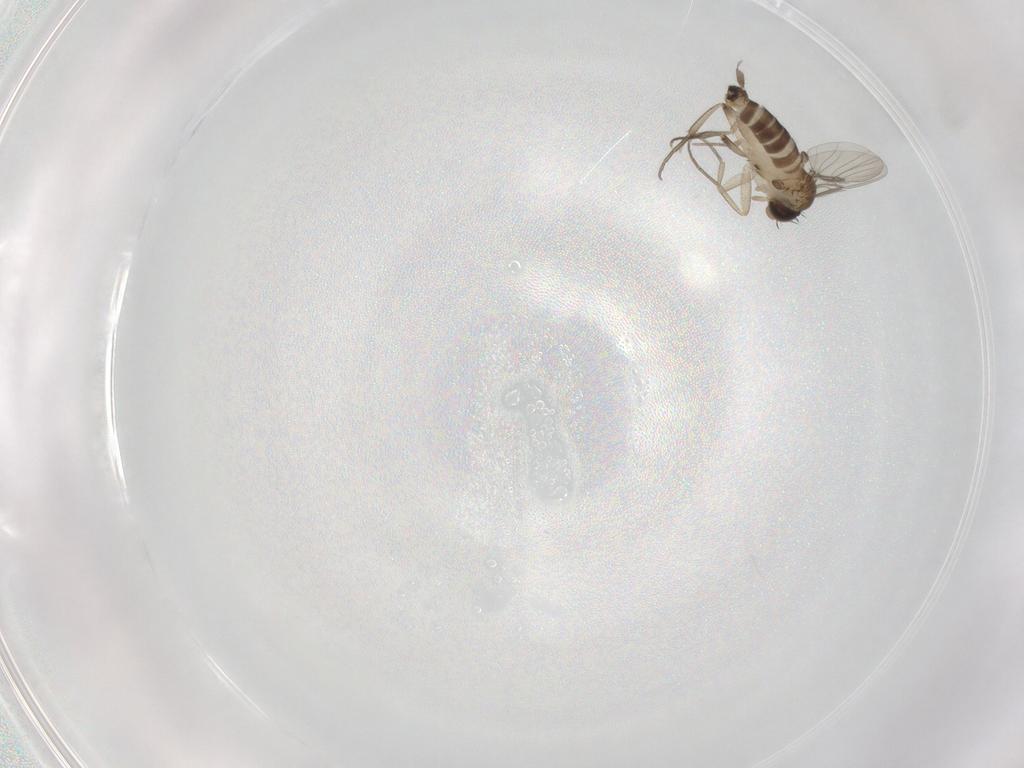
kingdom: Animalia
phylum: Arthropoda
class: Insecta
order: Diptera
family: Phoridae
